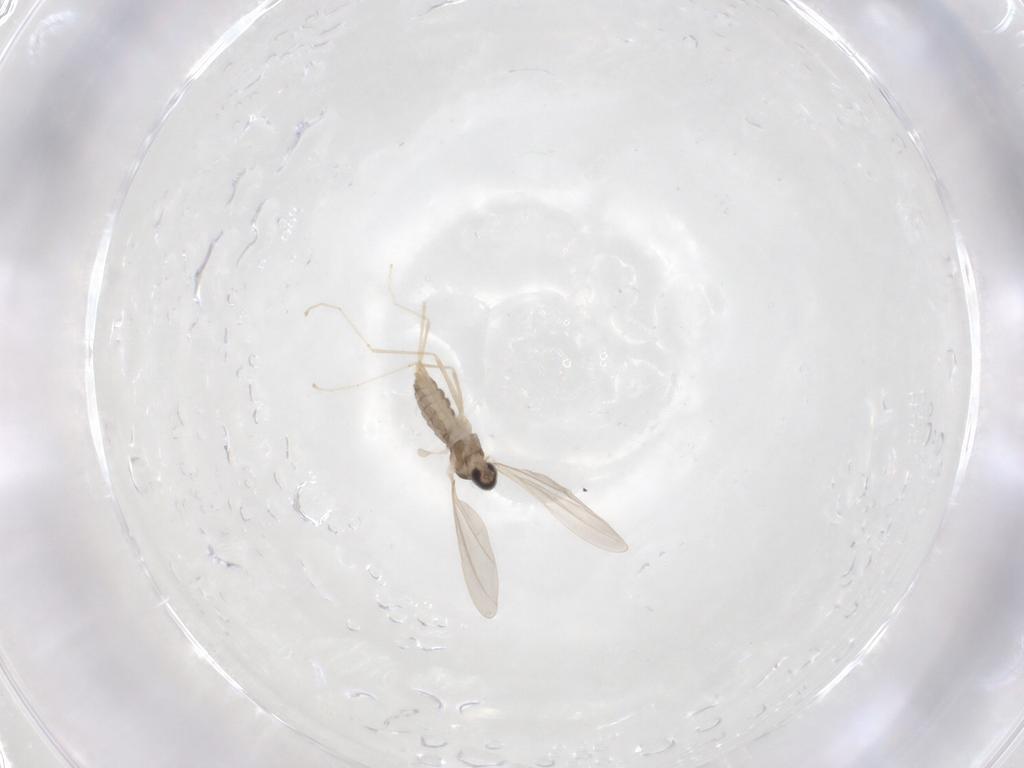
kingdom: Animalia
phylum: Arthropoda
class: Insecta
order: Diptera
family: Cecidomyiidae
